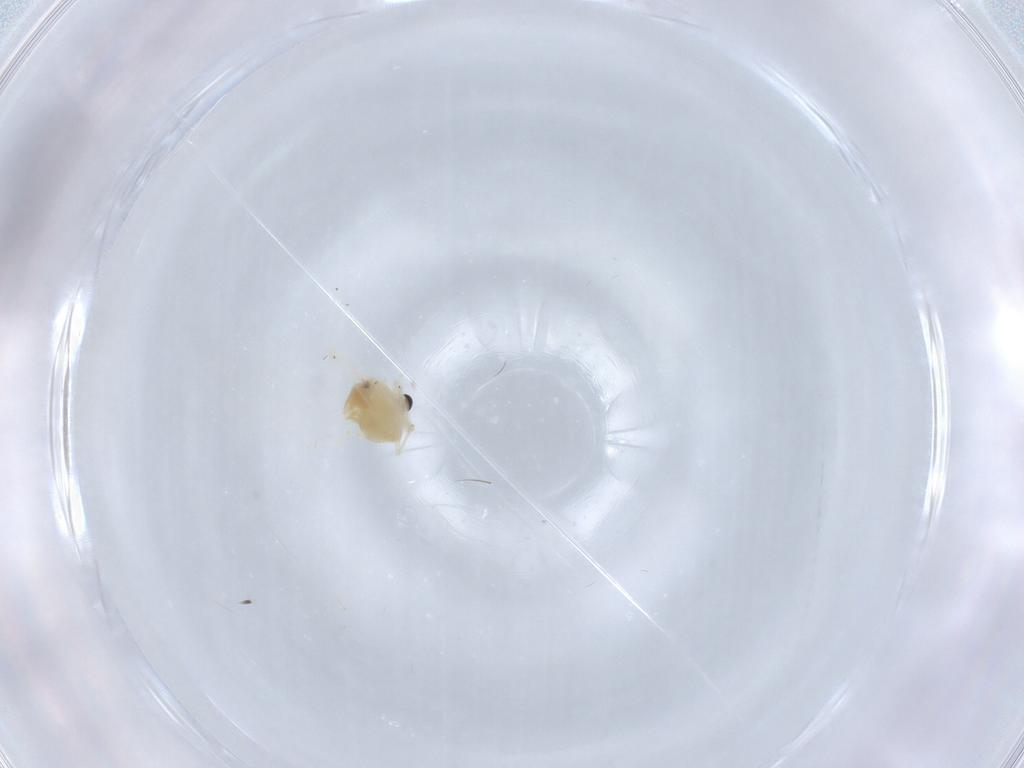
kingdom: Animalia
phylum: Arthropoda
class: Insecta
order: Diptera
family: Chironomidae
